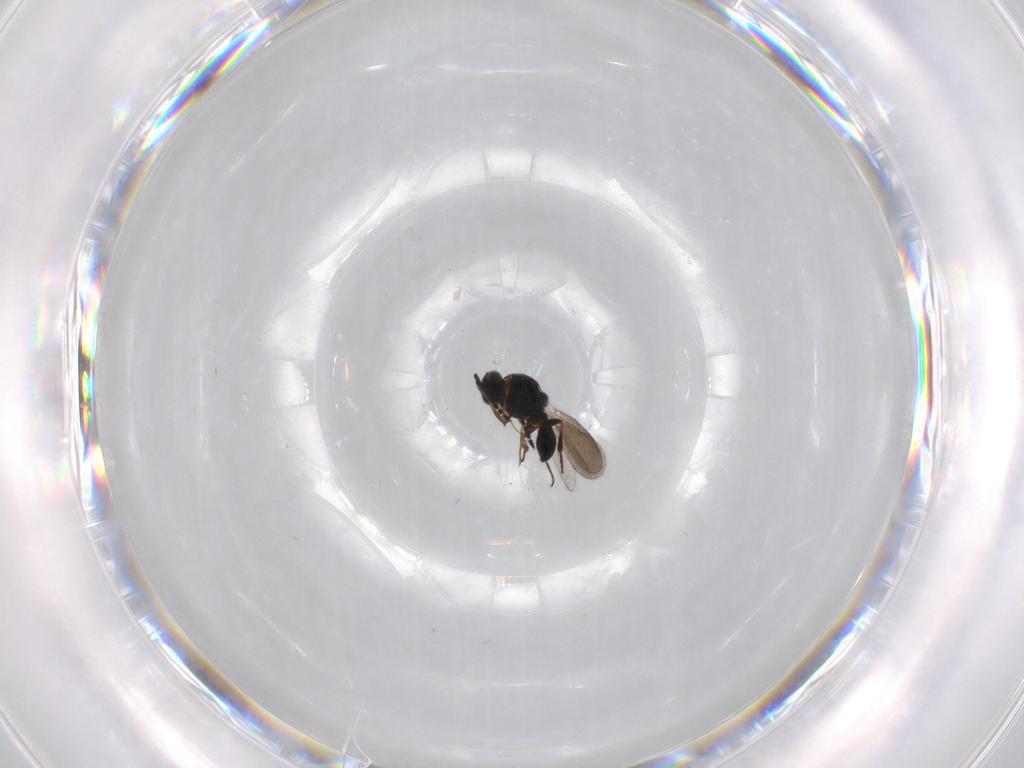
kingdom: Animalia
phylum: Arthropoda
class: Insecta
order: Hymenoptera
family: Platygastridae
